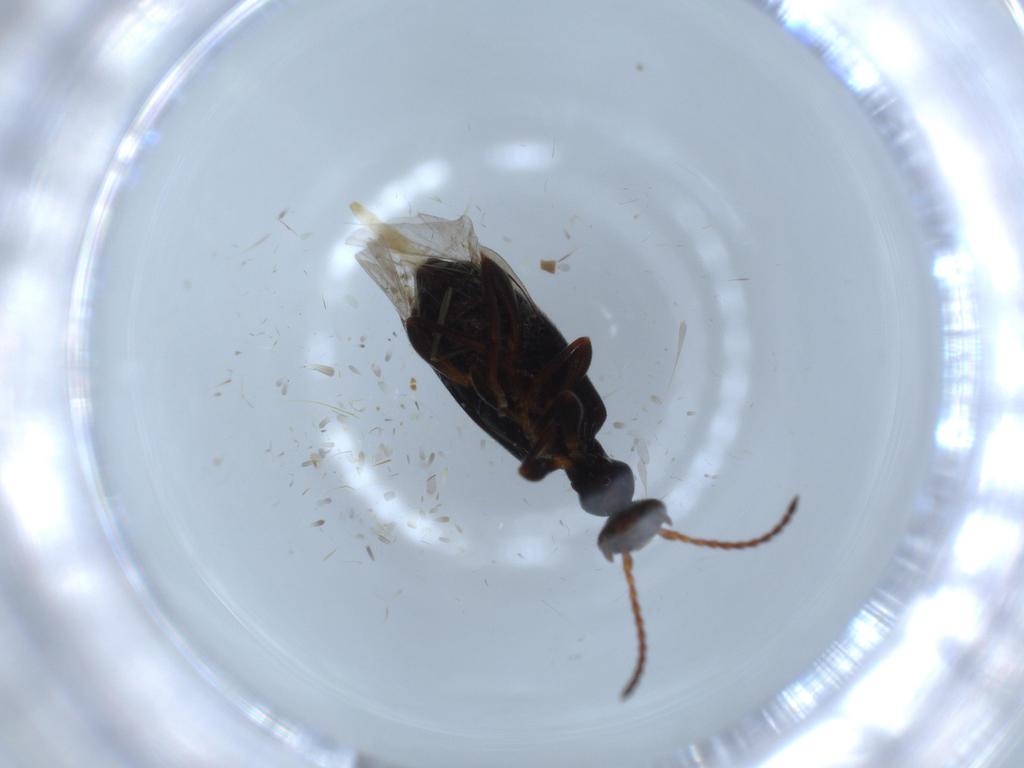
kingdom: Animalia
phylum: Arthropoda
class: Insecta
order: Coleoptera
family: Anthicidae
